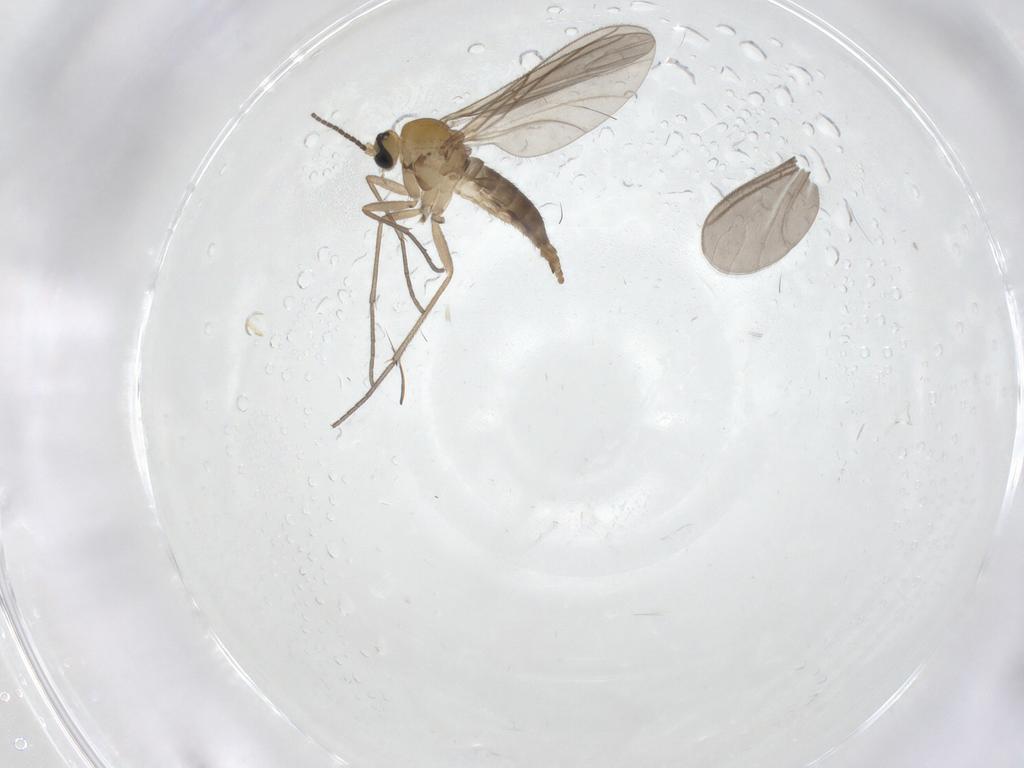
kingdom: Animalia
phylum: Arthropoda
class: Insecta
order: Diptera
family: Sciaridae
